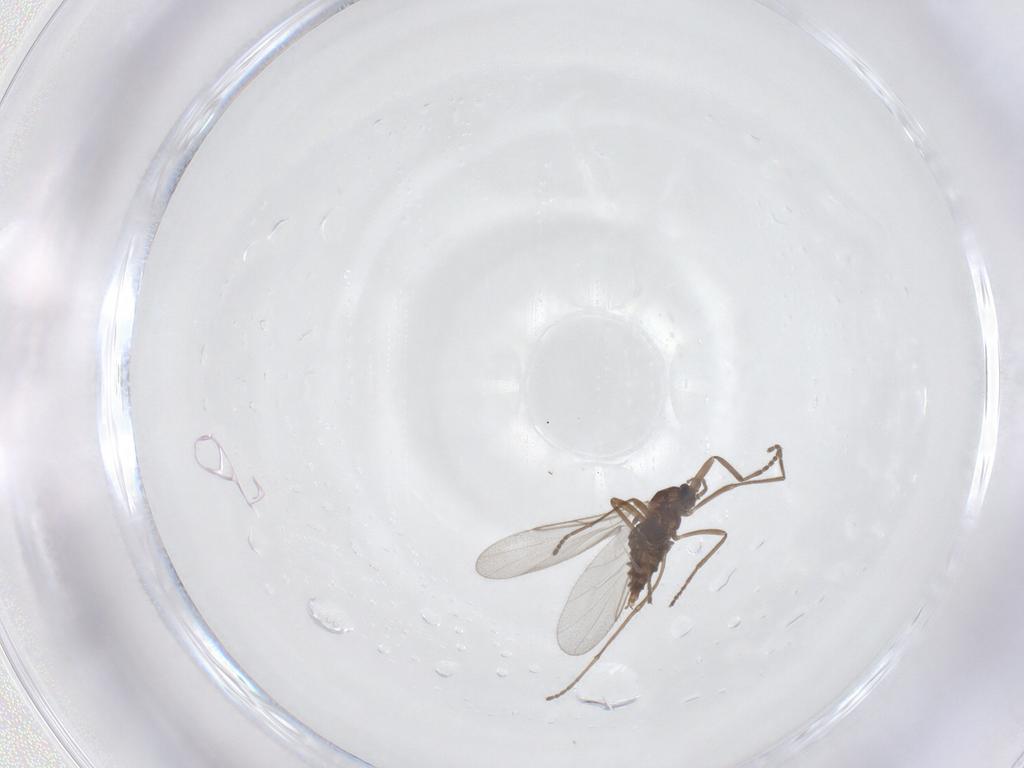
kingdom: Animalia
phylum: Arthropoda
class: Insecta
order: Diptera
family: Cecidomyiidae
